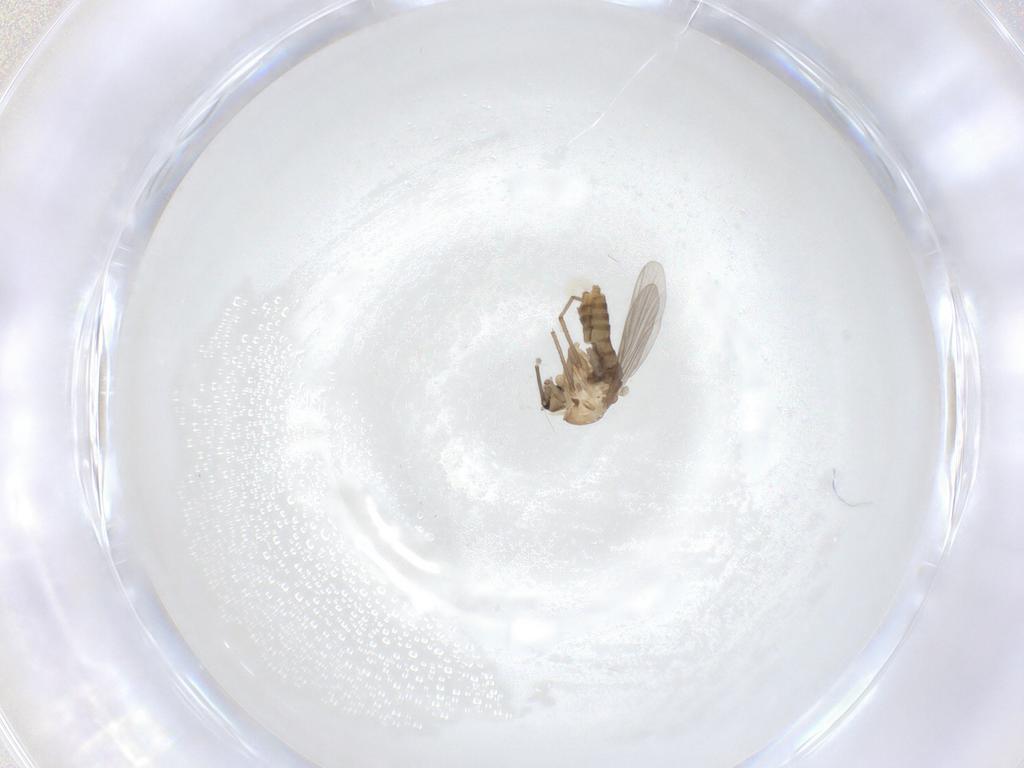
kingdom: Animalia
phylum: Arthropoda
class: Insecta
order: Diptera
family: Chironomidae
